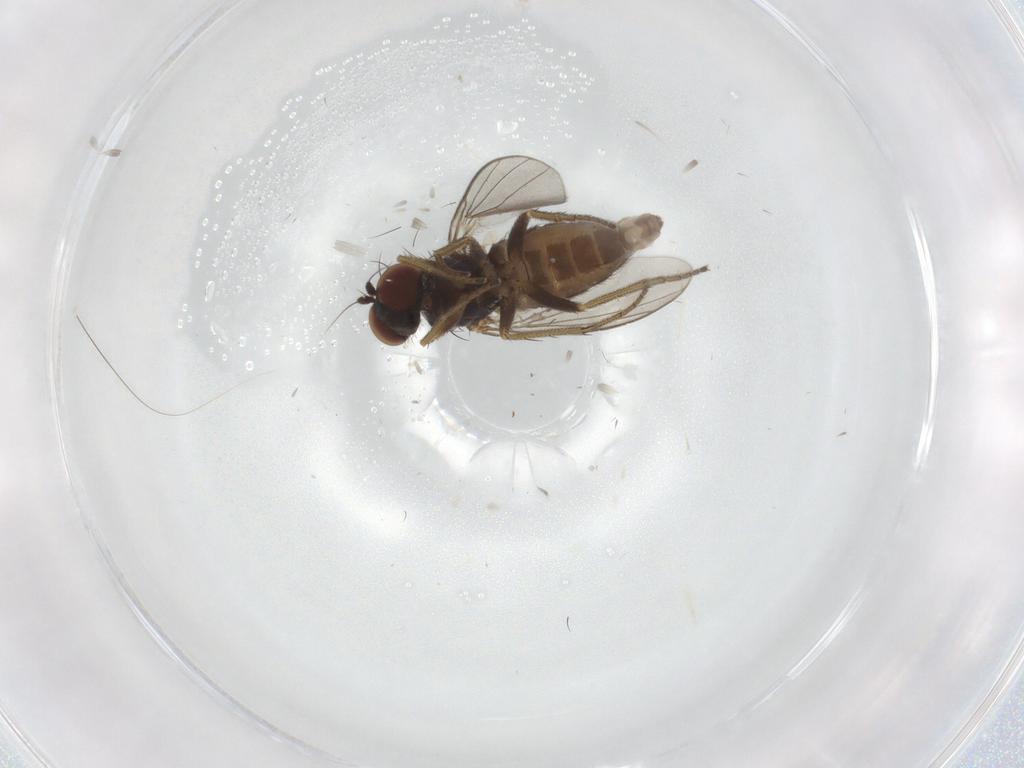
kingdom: Animalia
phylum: Arthropoda
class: Insecta
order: Diptera
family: Sciaridae
